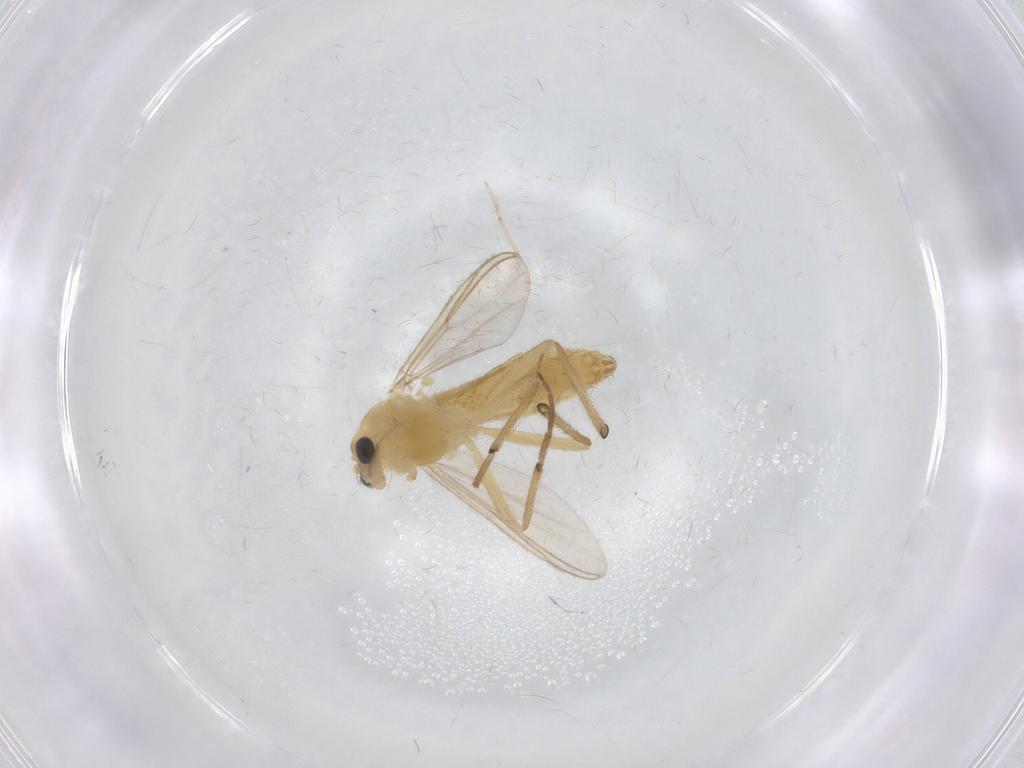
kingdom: Animalia
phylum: Arthropoda
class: Insecta
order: Diptera
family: Chironomidae
